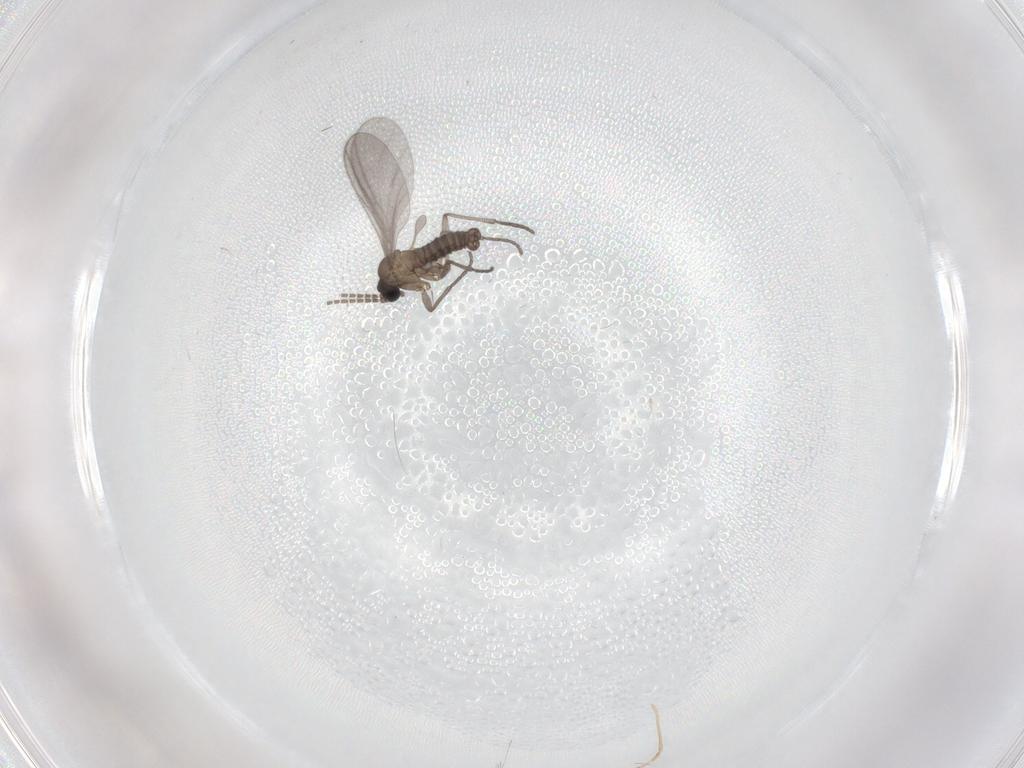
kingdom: Animalia
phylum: Arthropoda
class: Insecta
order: Diptera
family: Sciaridae
